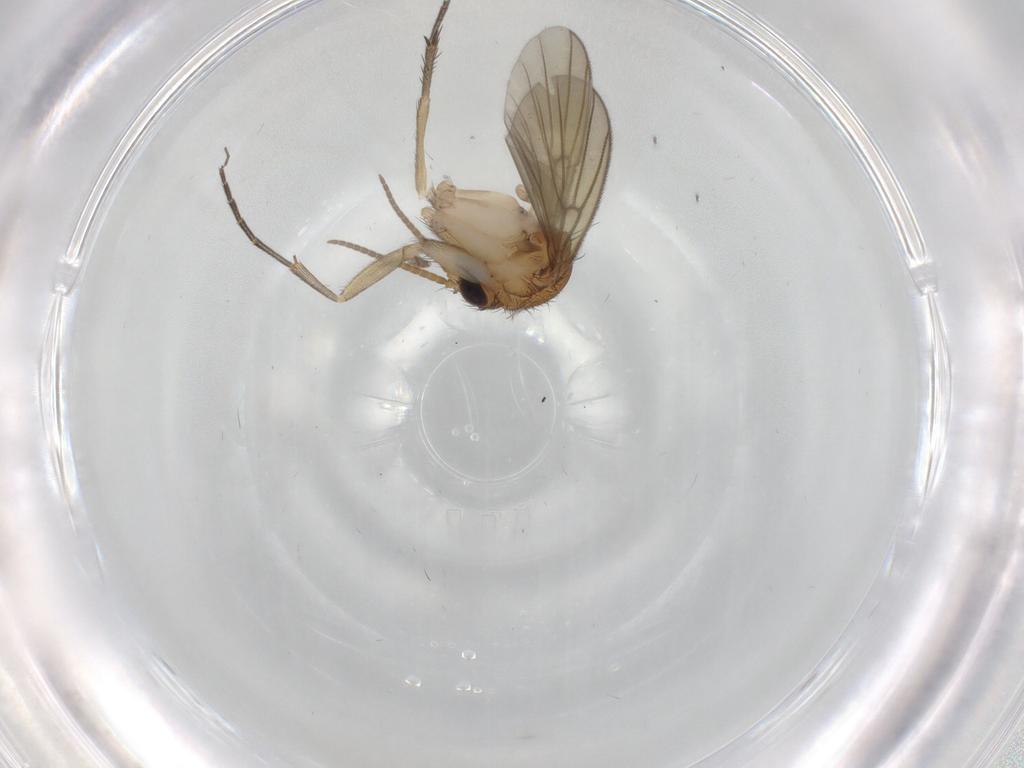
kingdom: Animalia
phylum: Arthropoda
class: Insecta
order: Diptera
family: Mycetophilidae
